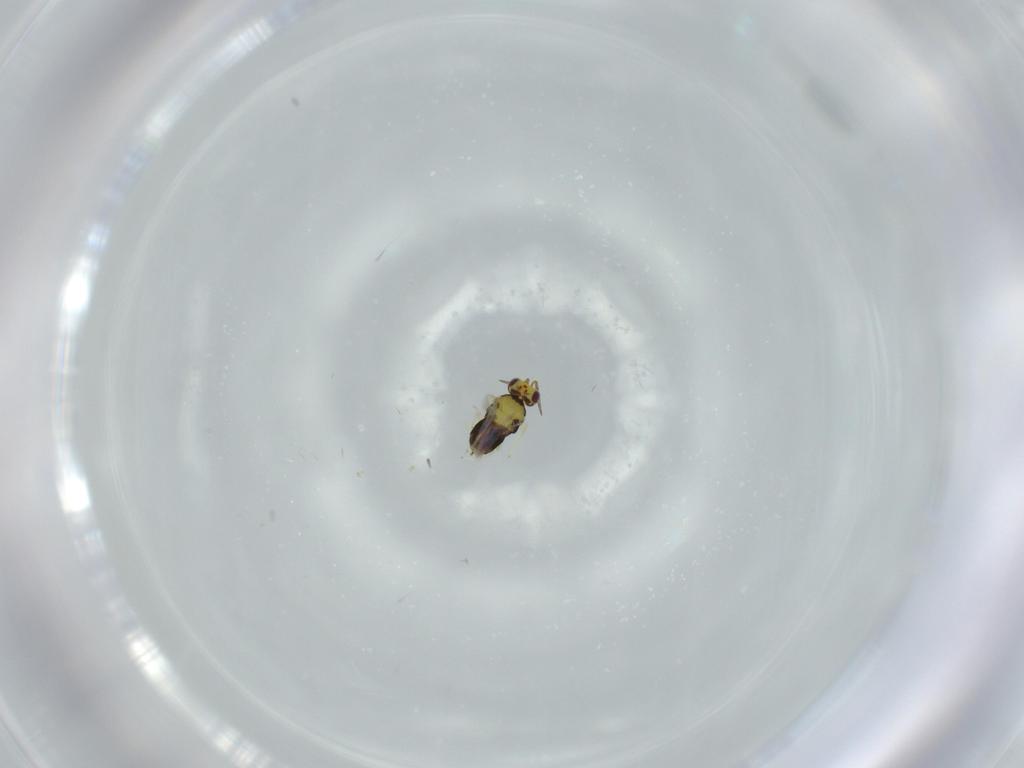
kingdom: Animalia
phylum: Arthropoda
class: Insecta
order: Hymenoptera
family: Aphelinidae
